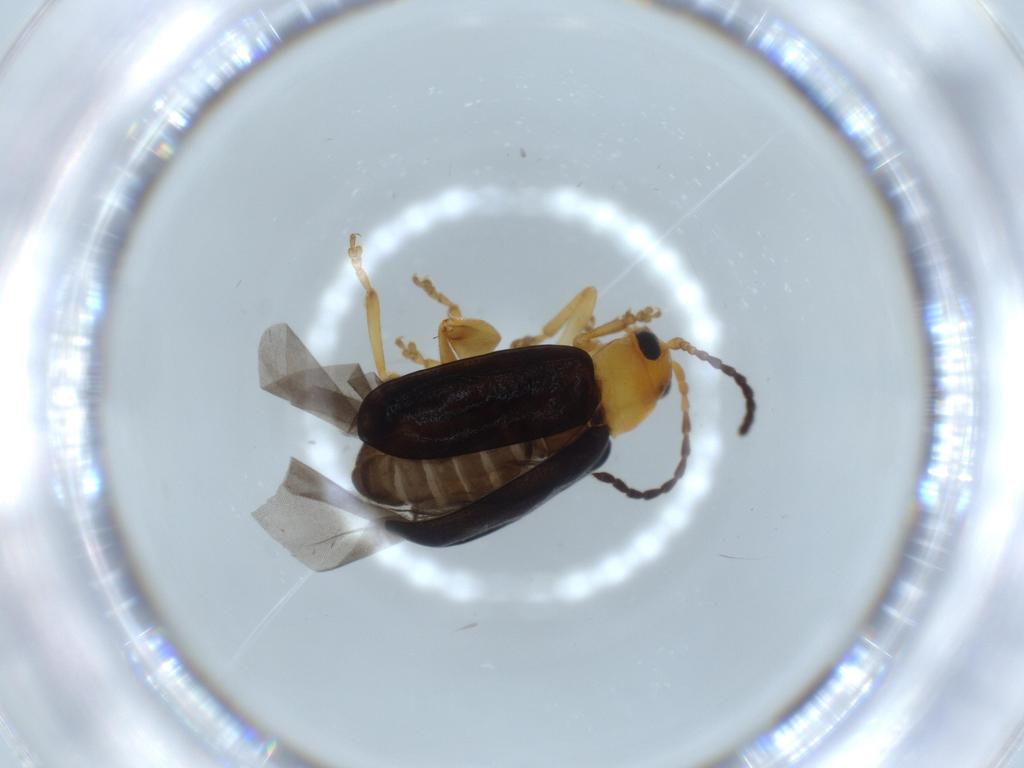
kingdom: Animalia
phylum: Arthropoda
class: Insecta
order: Coleoptera
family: Chrysomelidae
